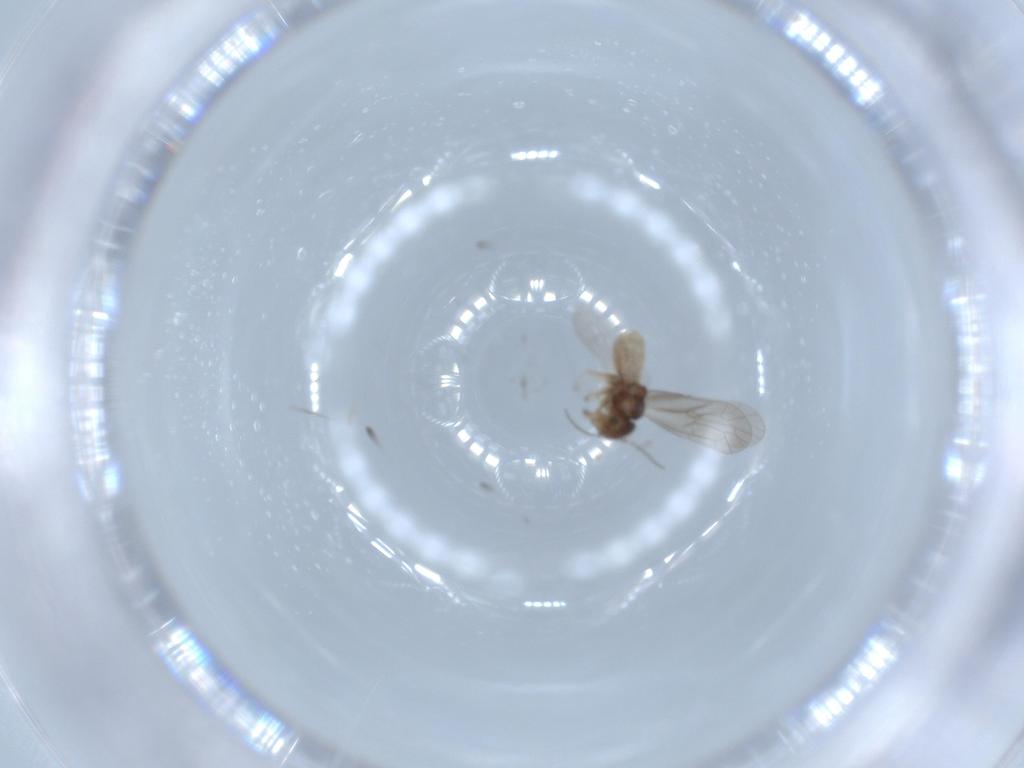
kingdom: Animalia
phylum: Arthropoda
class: Insecta
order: Psocodea
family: Peripsocidae
